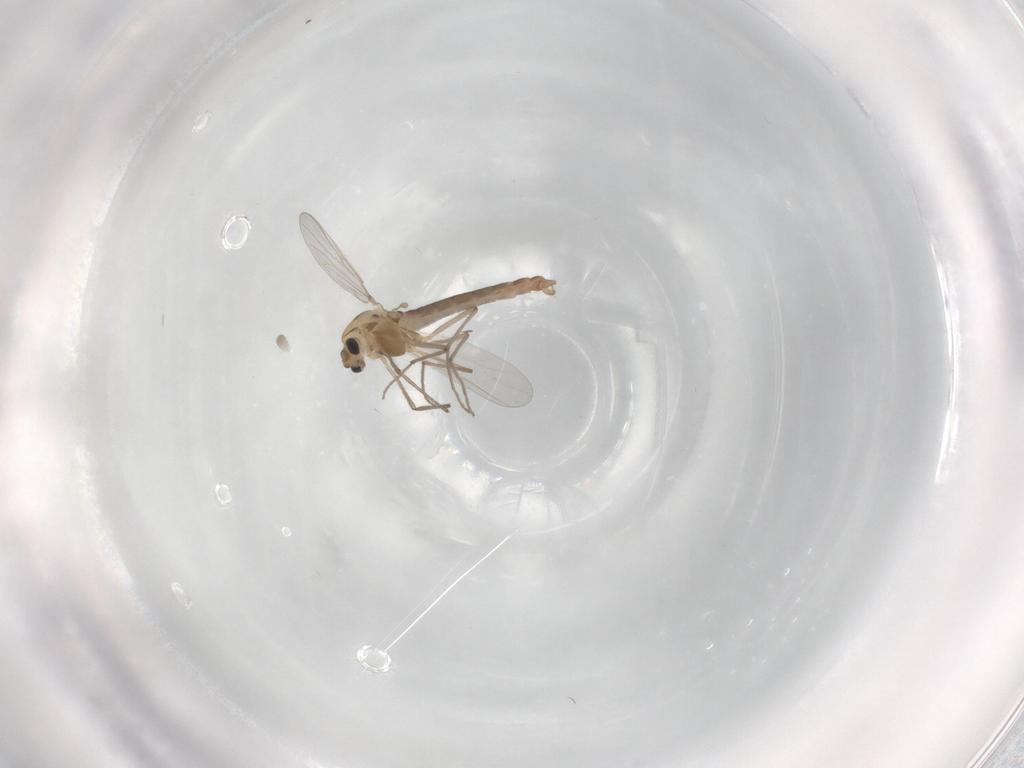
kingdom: Animalia
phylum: Arthropoda
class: Insecta
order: Diptera
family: Chironomidae
